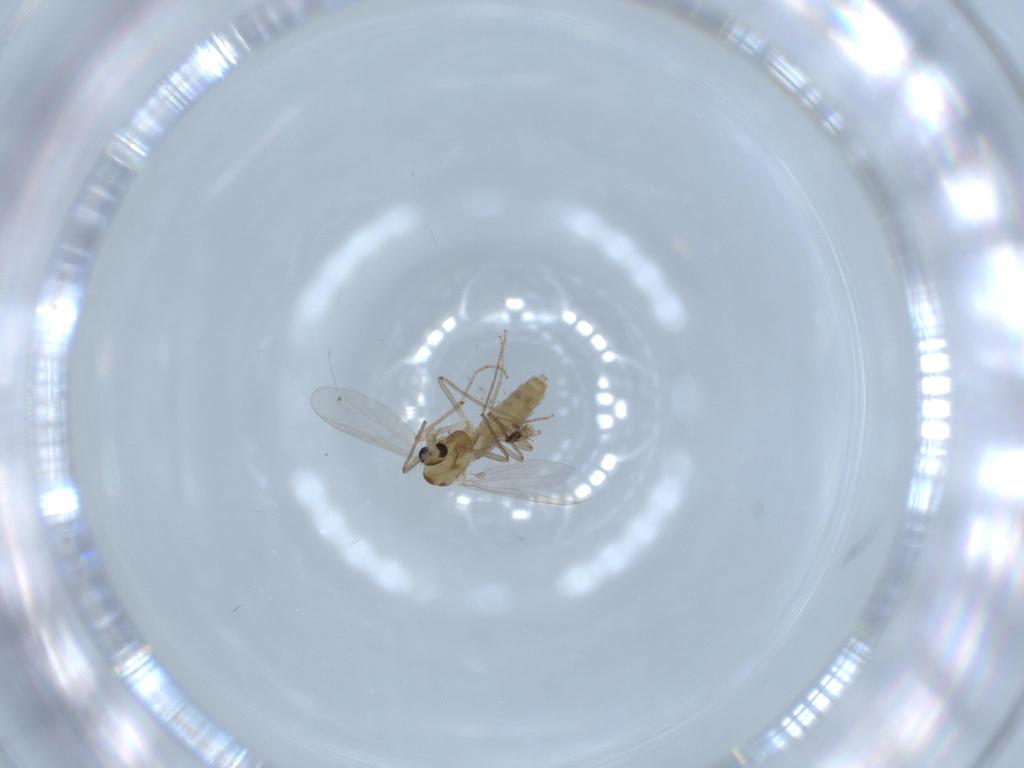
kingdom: Animalia
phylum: Arthropoda
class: Insecta
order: Diptera
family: Chironomidae
